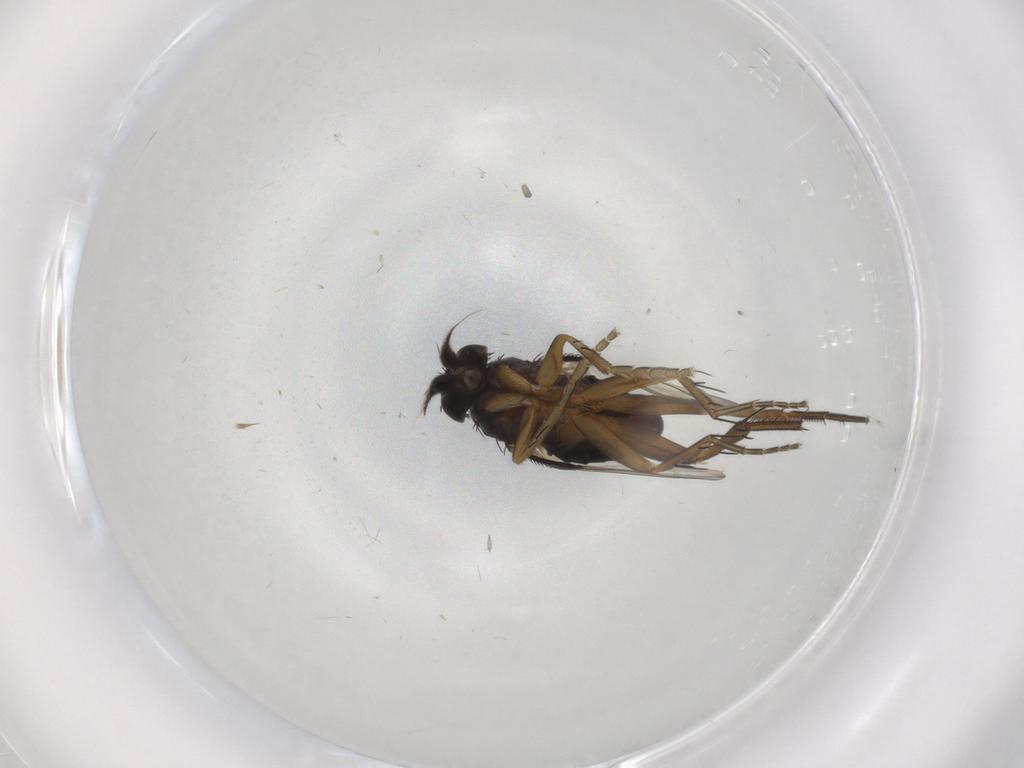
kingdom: Animalia
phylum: Arthropoda
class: Insecta
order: Diptera
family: Phoridae
